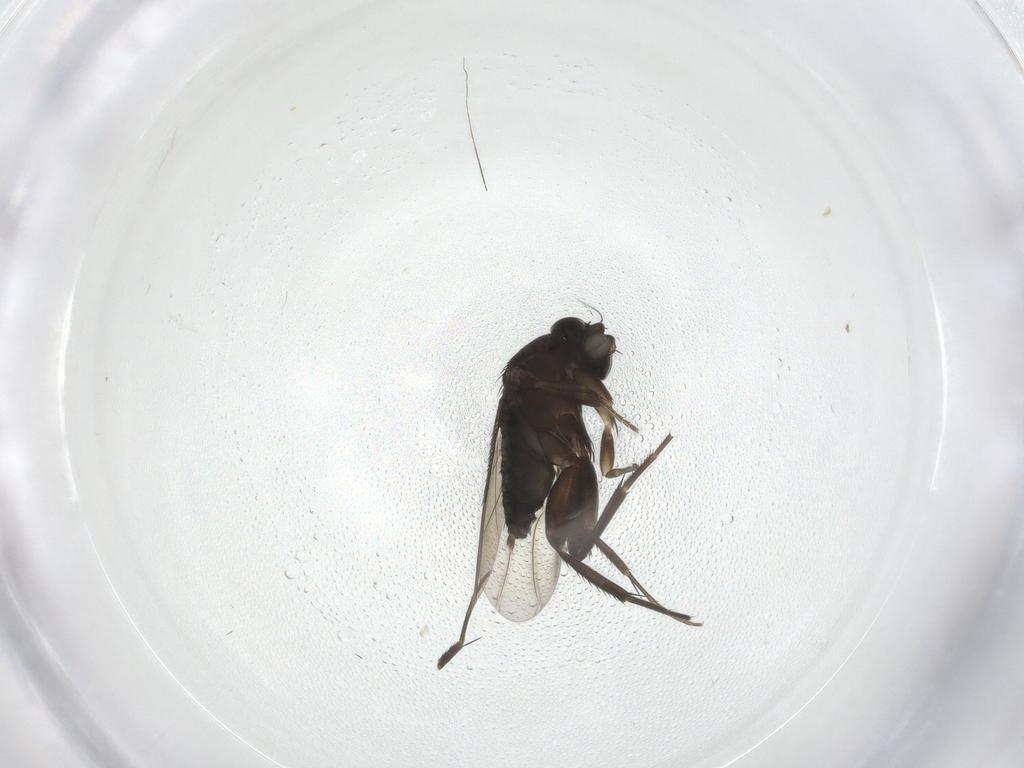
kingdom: Animalia
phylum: Arthropoda
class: Insecta
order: Diptera
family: Phoridae
